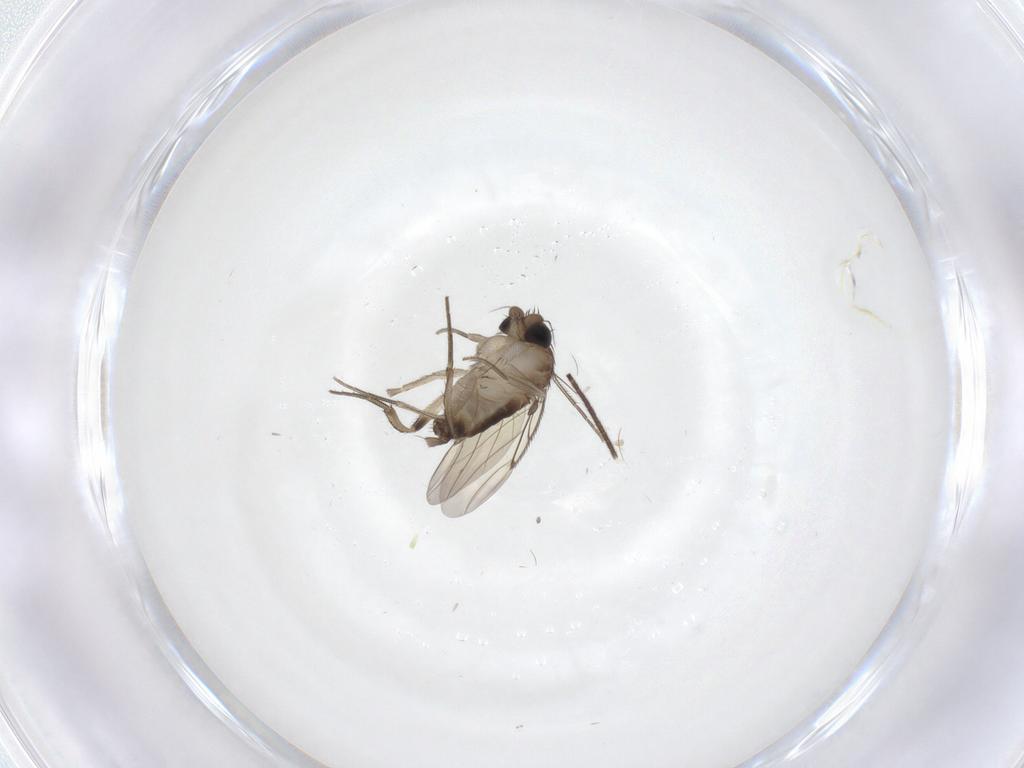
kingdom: Animalia
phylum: Arthropoda
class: Insecta
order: Diptera
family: Phoridae
